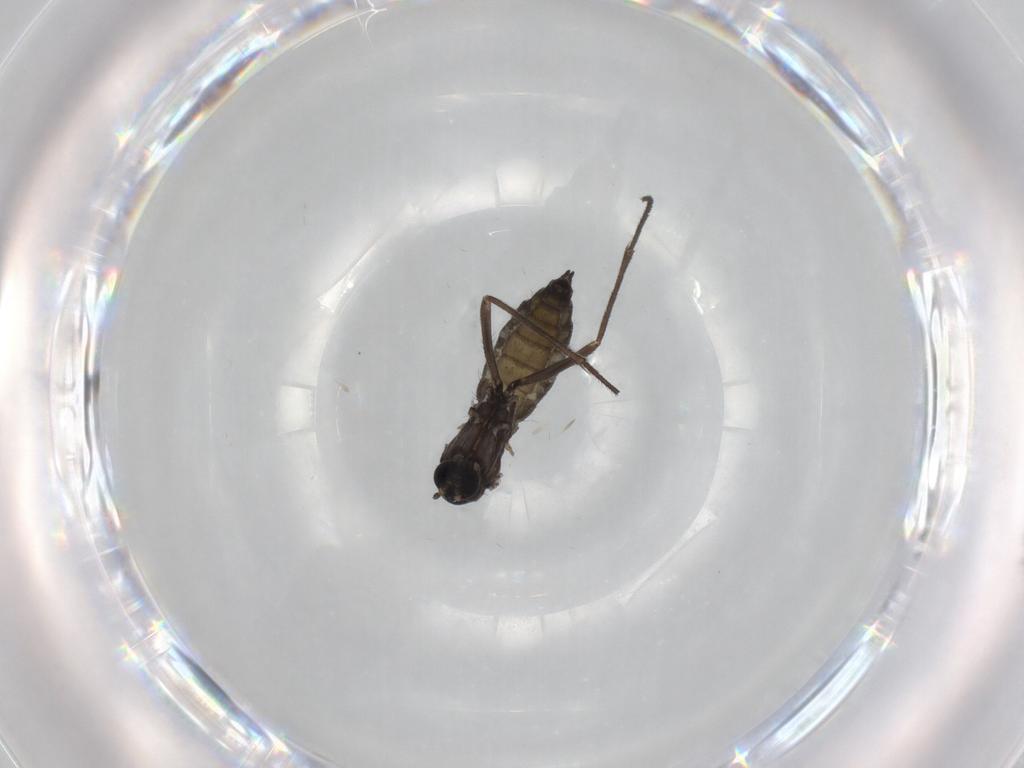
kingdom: Animalia
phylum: Arthropoda
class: Insecta
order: Diptera
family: Sciaridae
